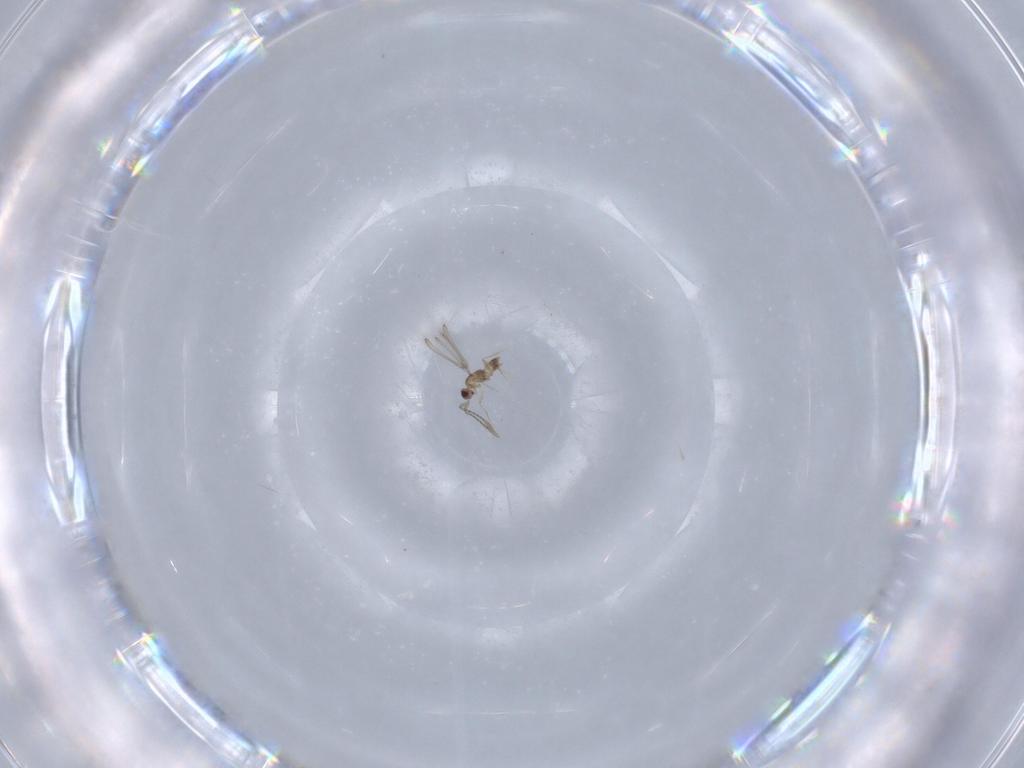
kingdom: Animalia
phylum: Arthropoda
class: Insecta
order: Hymenoptera
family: Mymaridae
